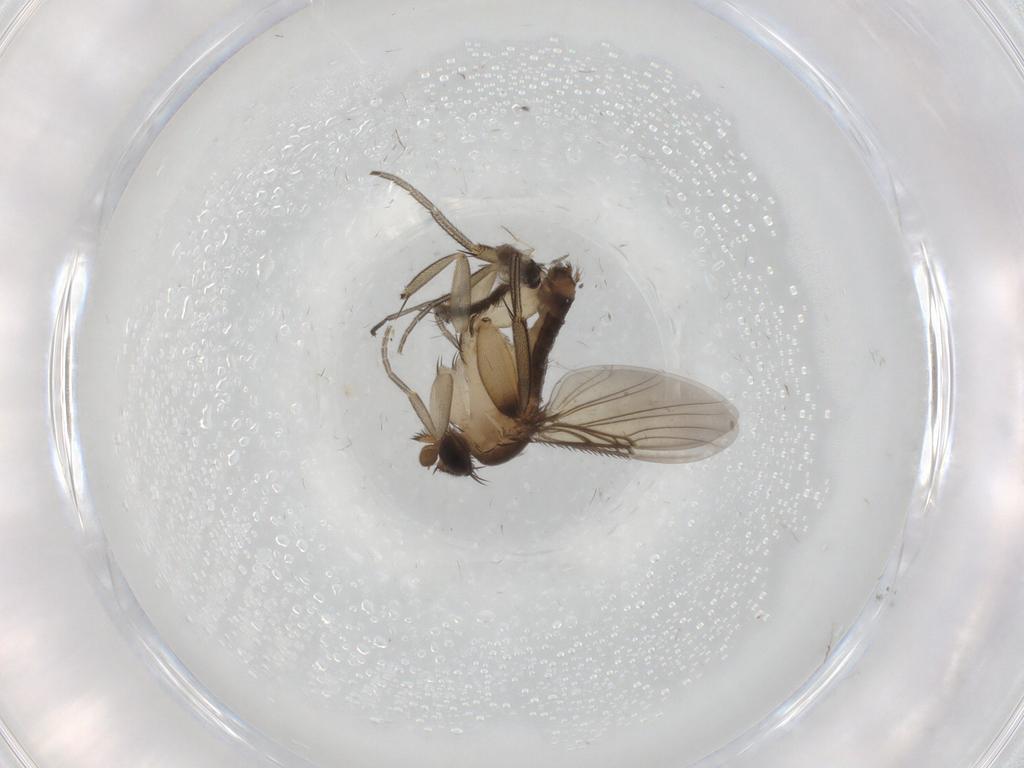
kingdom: Animalia
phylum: Arthropoda
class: Insecta
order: Diptera
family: Phoridae
